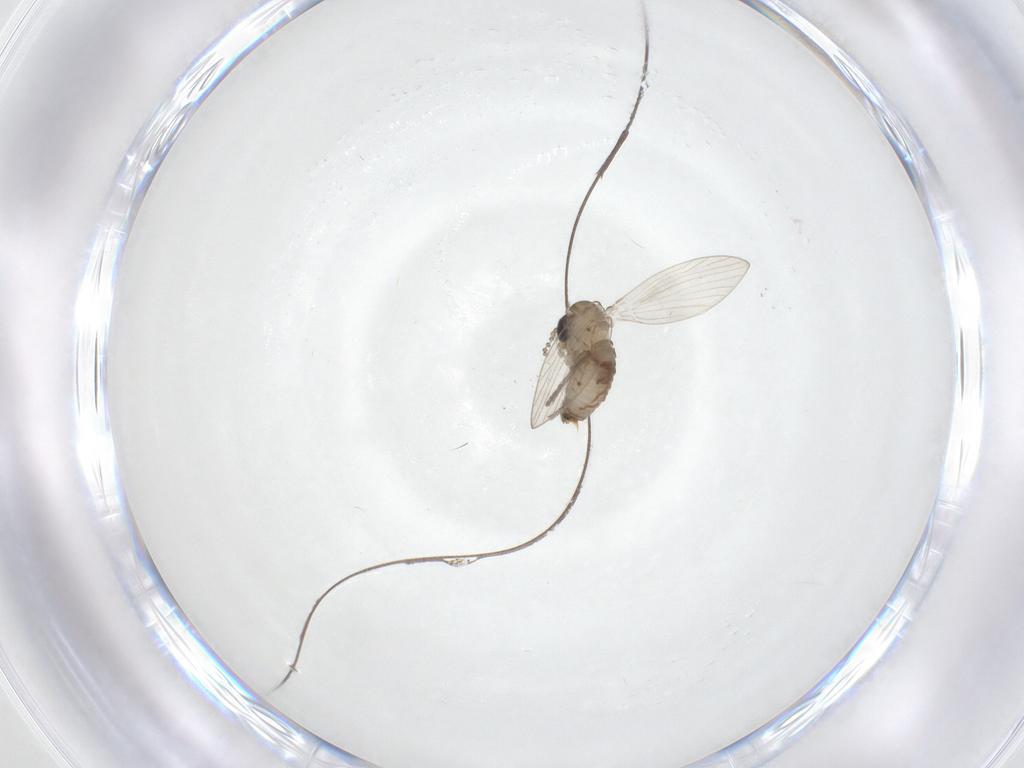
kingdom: Animalia
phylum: Arthropoda
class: Insecta
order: Diptera
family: Psychodidae
